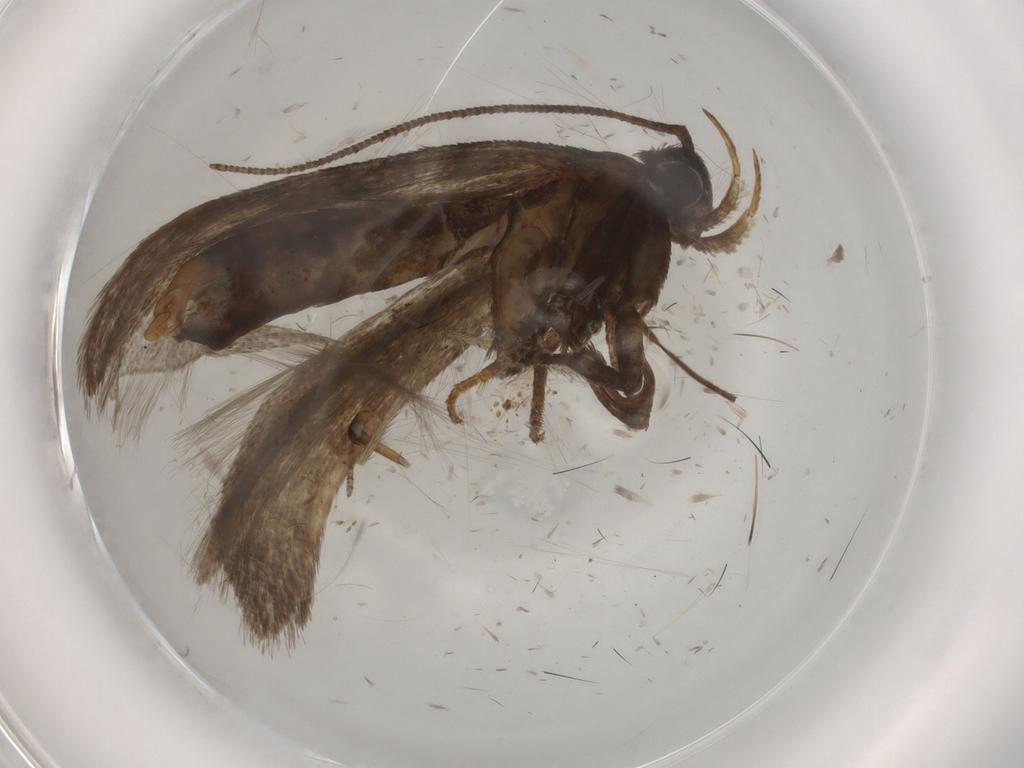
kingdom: Animalia
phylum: Arthropoda
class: Insecta
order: Lepidoptera
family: Gelechiidae
